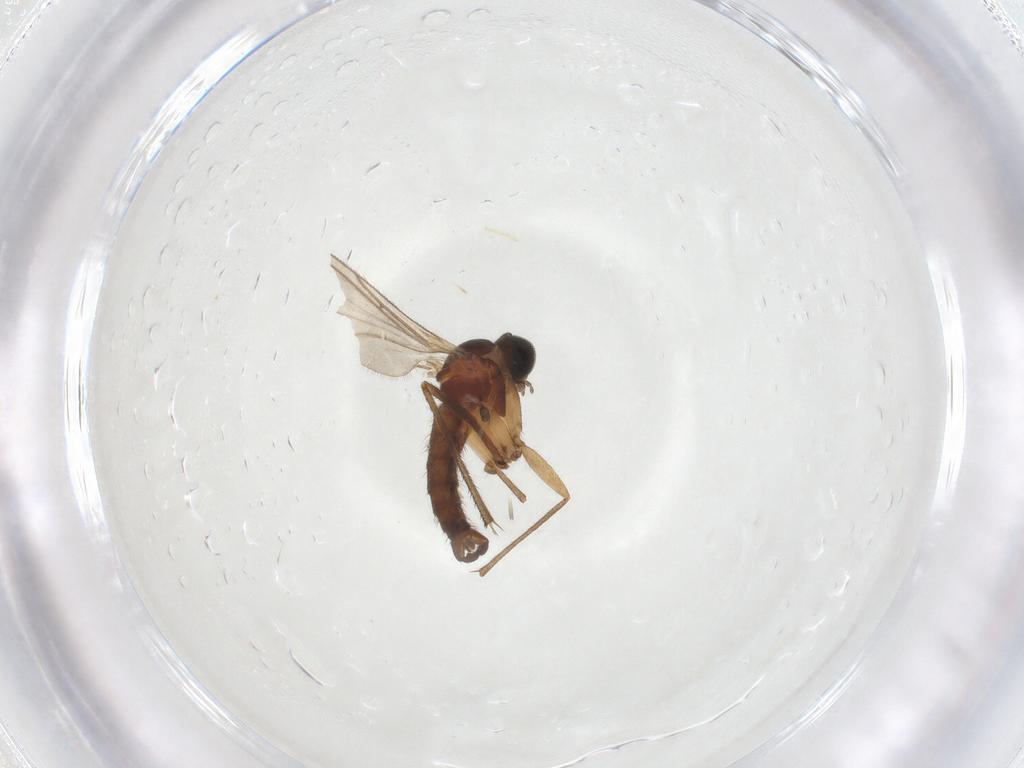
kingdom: Animalia
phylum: Arthropoda
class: Insecta
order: Diptera
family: Sciaridae
